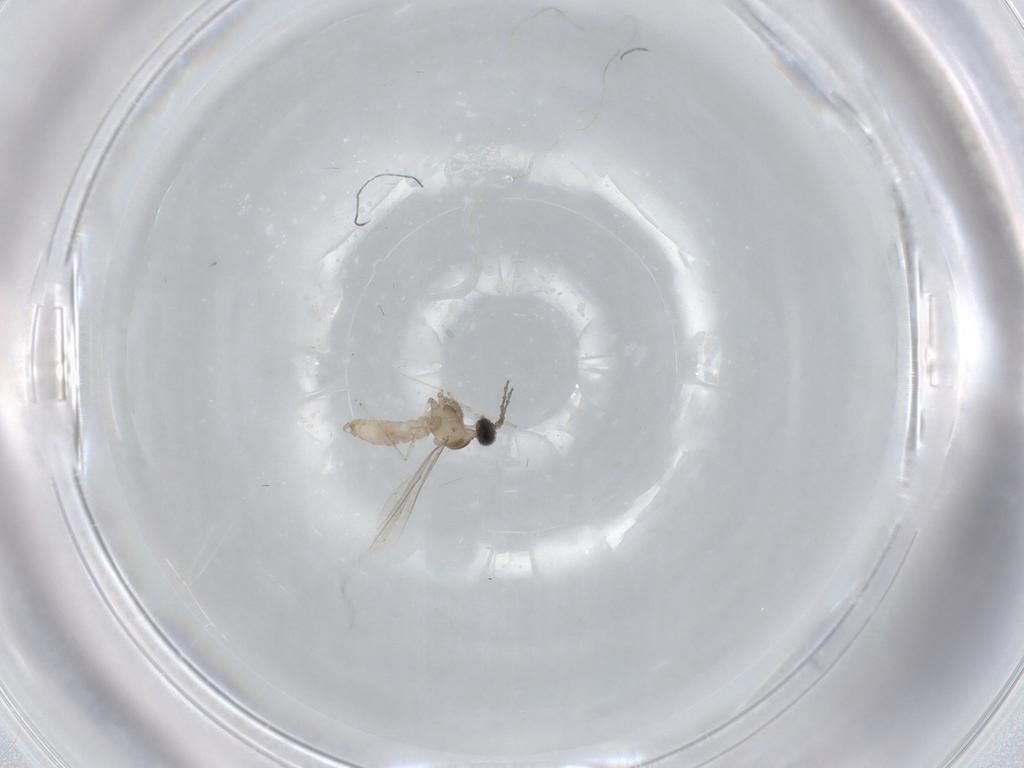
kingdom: Animalia
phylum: Arthropoda
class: Insecta
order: Diptera
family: Cecidomyiidae
